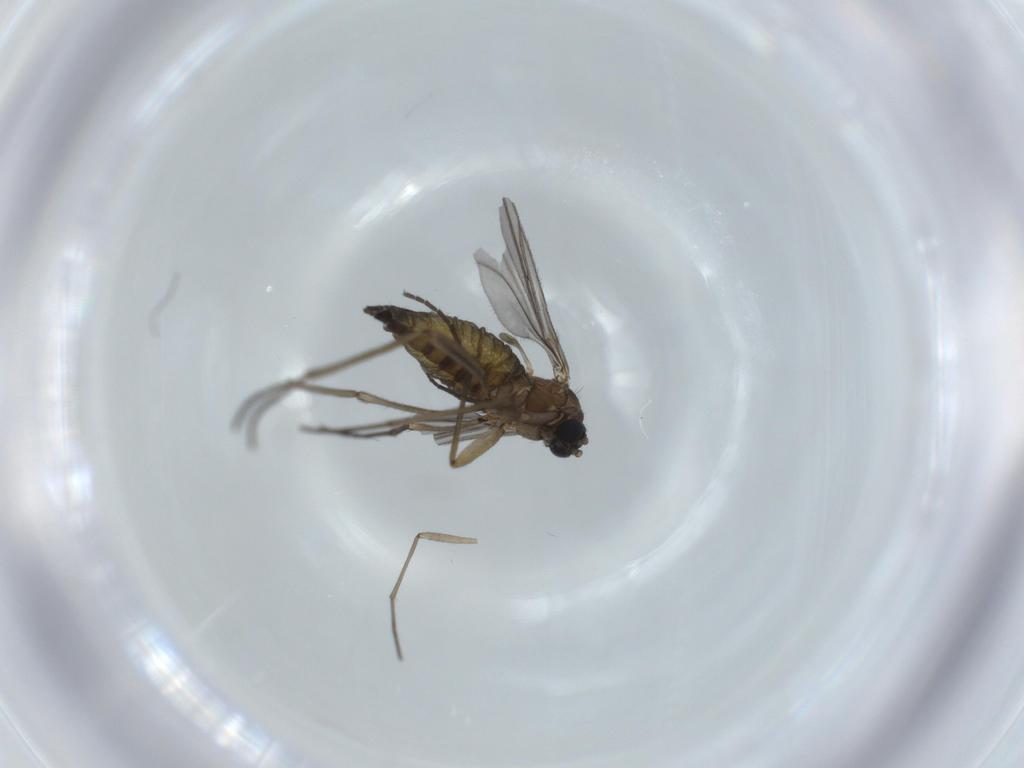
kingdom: Animalia
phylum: Arthropoda
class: Insecta
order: Diptera
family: Sciaridae
